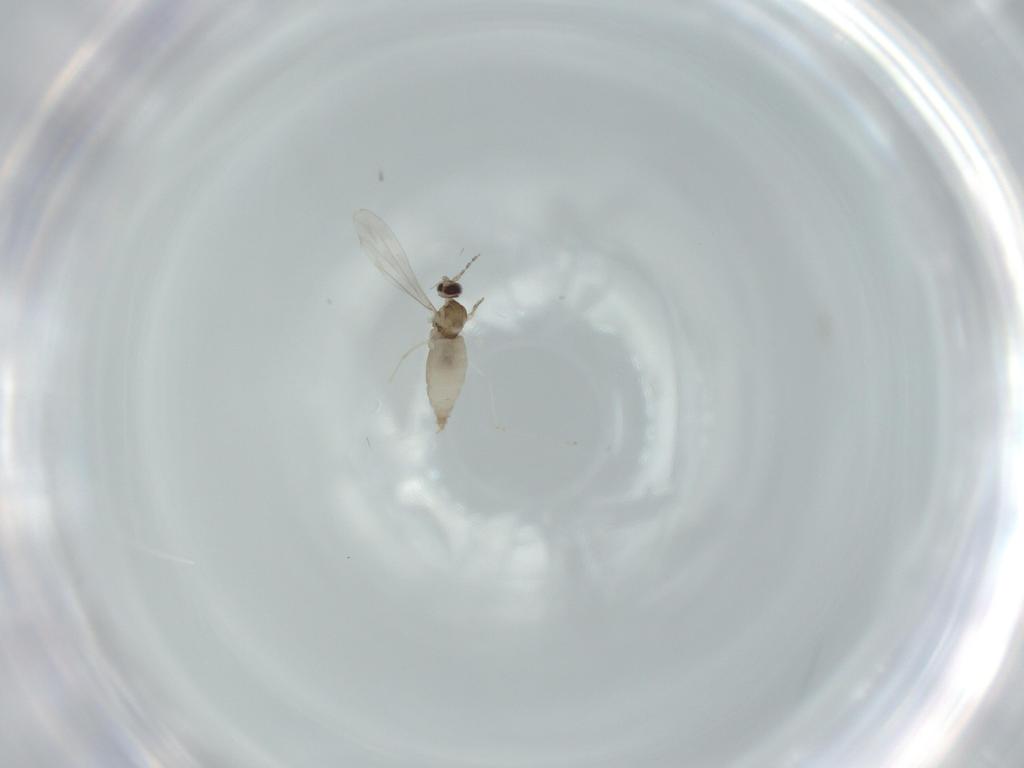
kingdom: Animalia
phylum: Arthropoda
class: Insecta
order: Diptera
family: Cecidomyiidae
